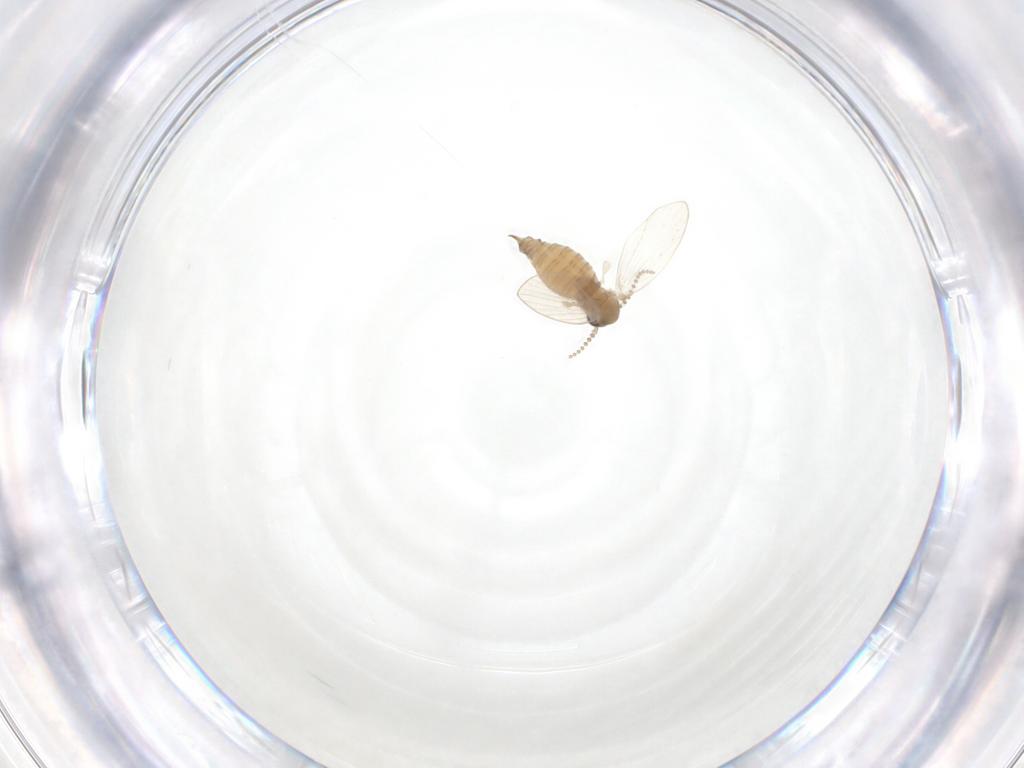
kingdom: Animalia
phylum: Arthropoda
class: Insecta
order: Diptera
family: Psychodidae
